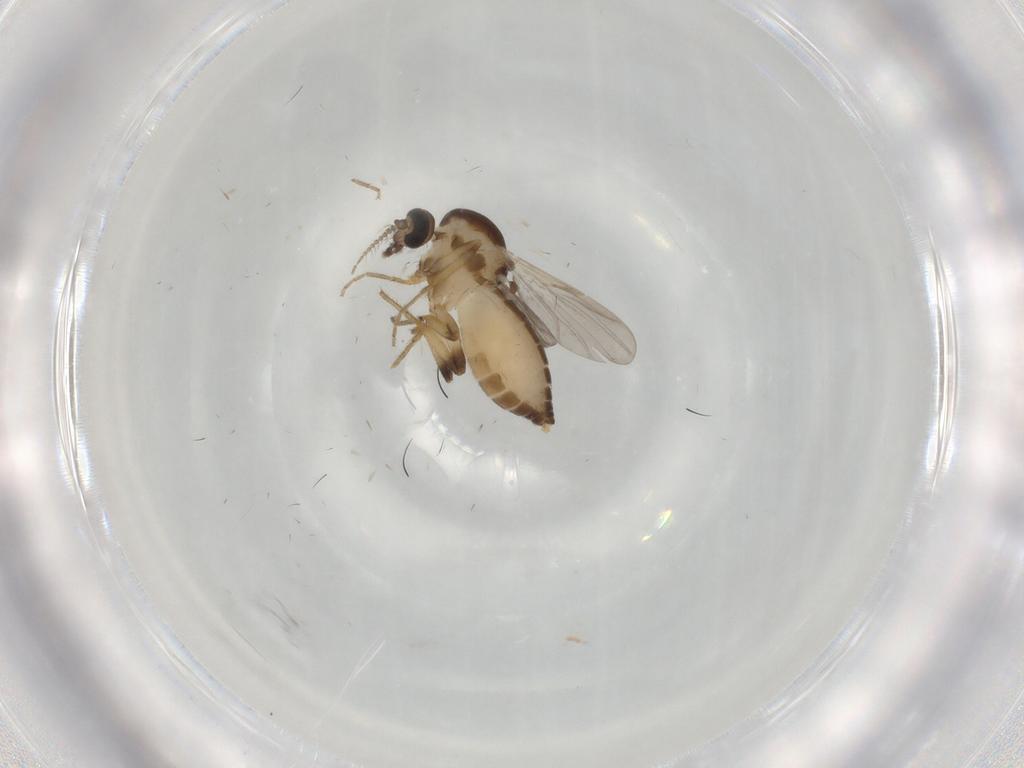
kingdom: Animalia
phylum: Arthropoda
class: Insecta
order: Diptera
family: Ceratopogonidae
